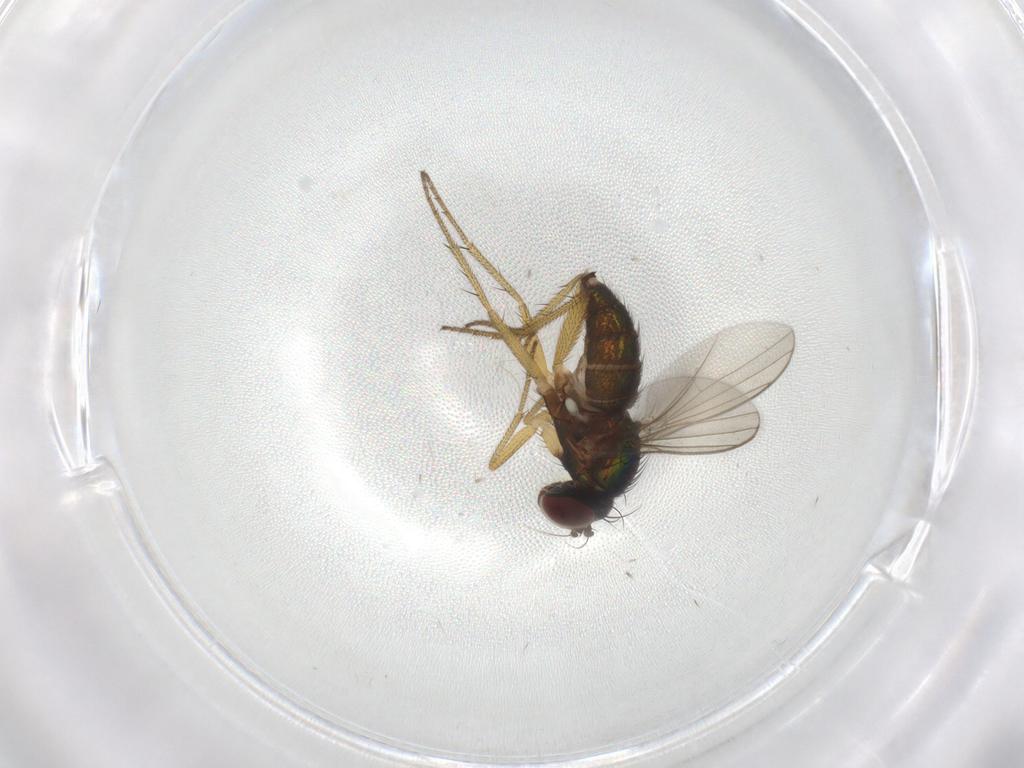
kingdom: Animalia
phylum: Arthropoda
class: Insecta
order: Diptera
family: Dolichopodidae
